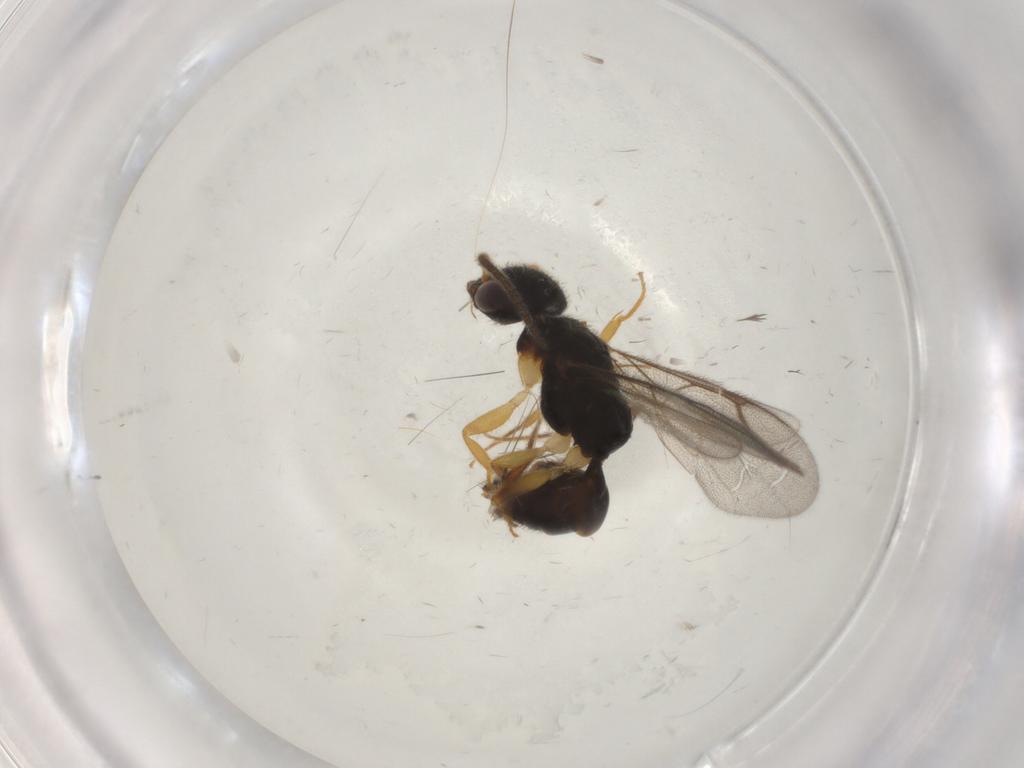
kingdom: Animalia
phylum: Arthropoda
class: Insecta
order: Hymenoptera
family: Bethylidae
